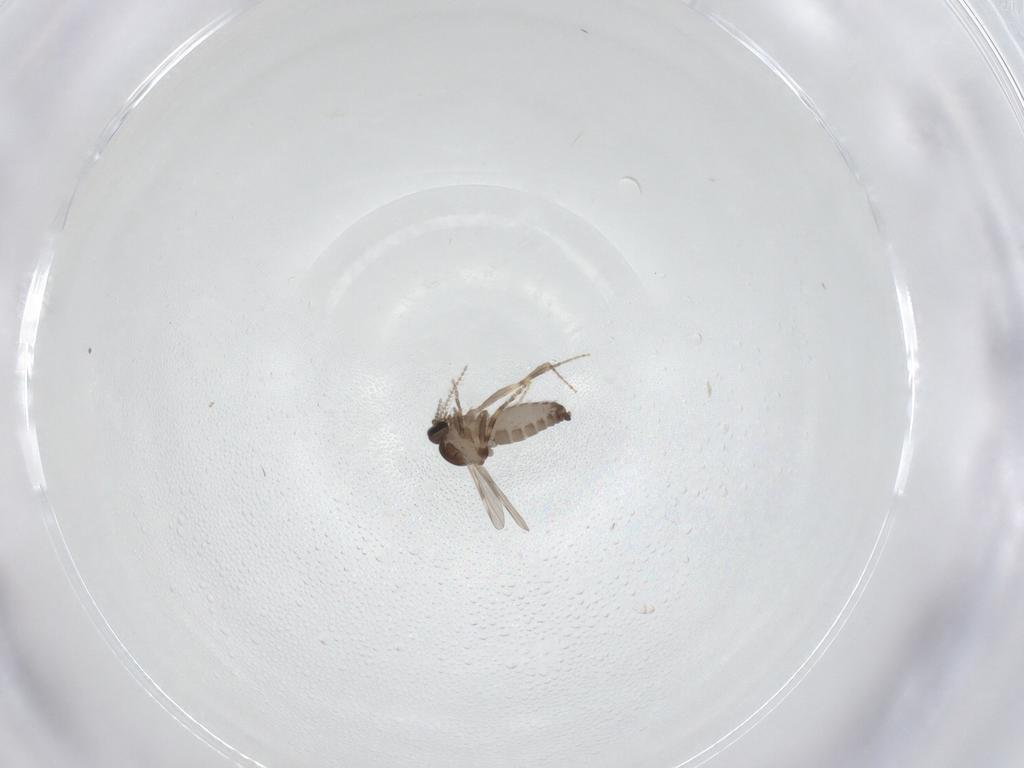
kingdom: Animalia
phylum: Arthropoda
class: Insecta
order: Diptera
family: Ceratopogonidae
